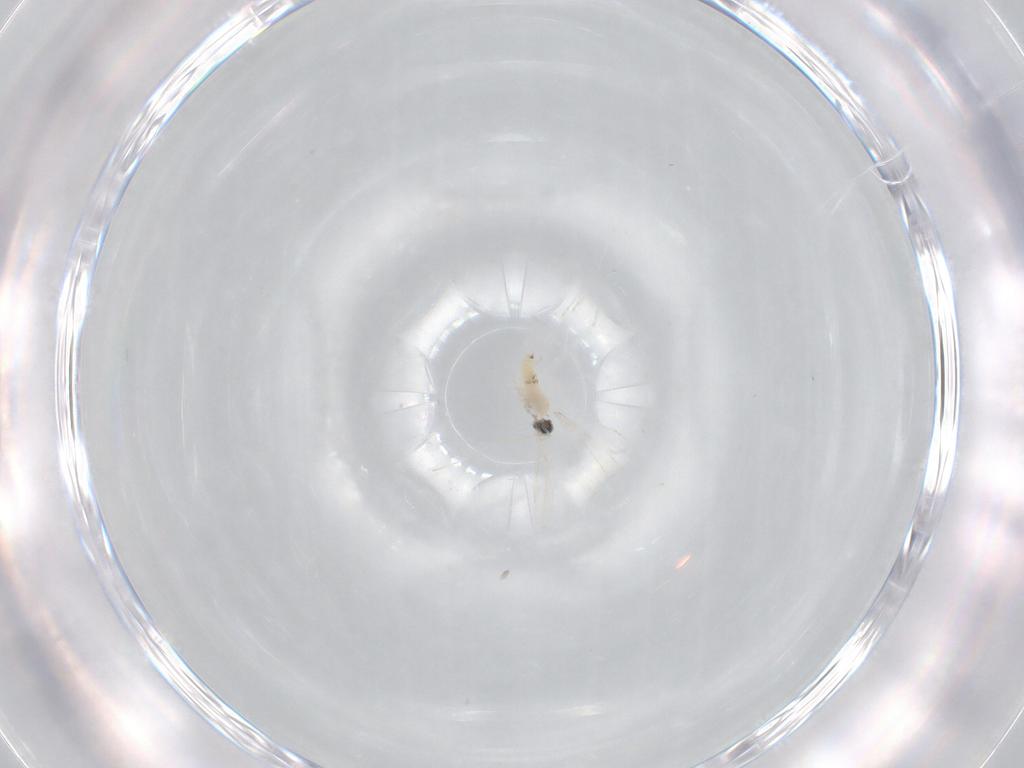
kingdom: Animalia
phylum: Arthropoda
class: Insecta
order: Diptera
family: Cecidomyiidae
